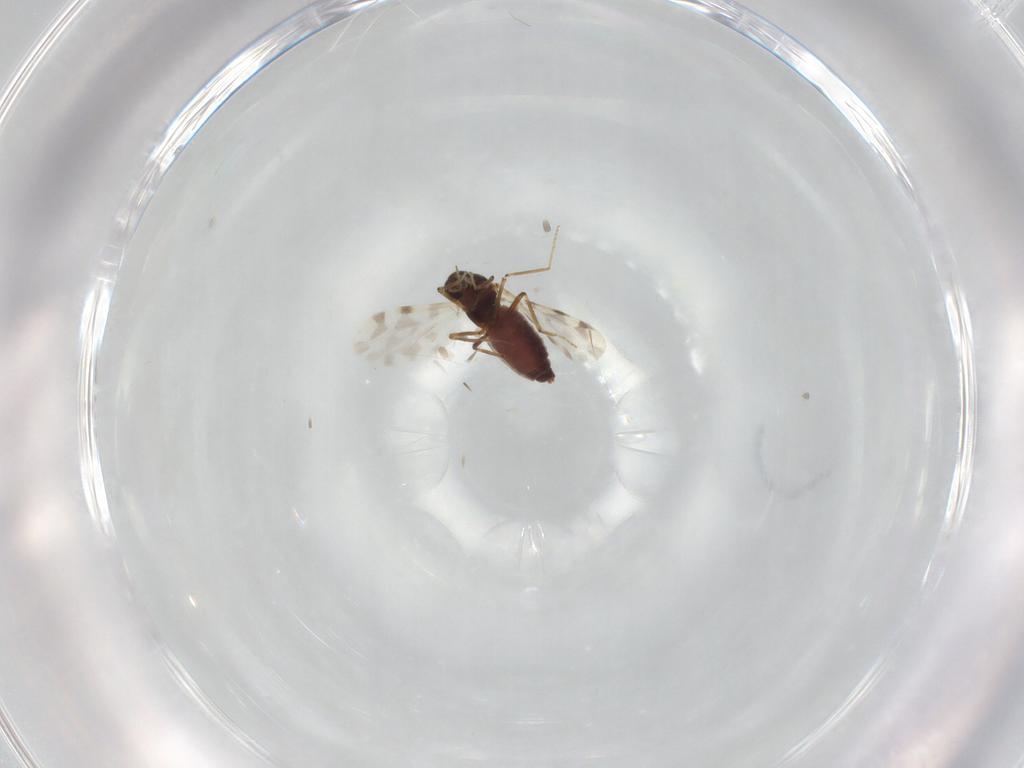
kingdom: Animalia
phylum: Arthropoda
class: Insecta
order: Diptera
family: Ceratopogonidae
